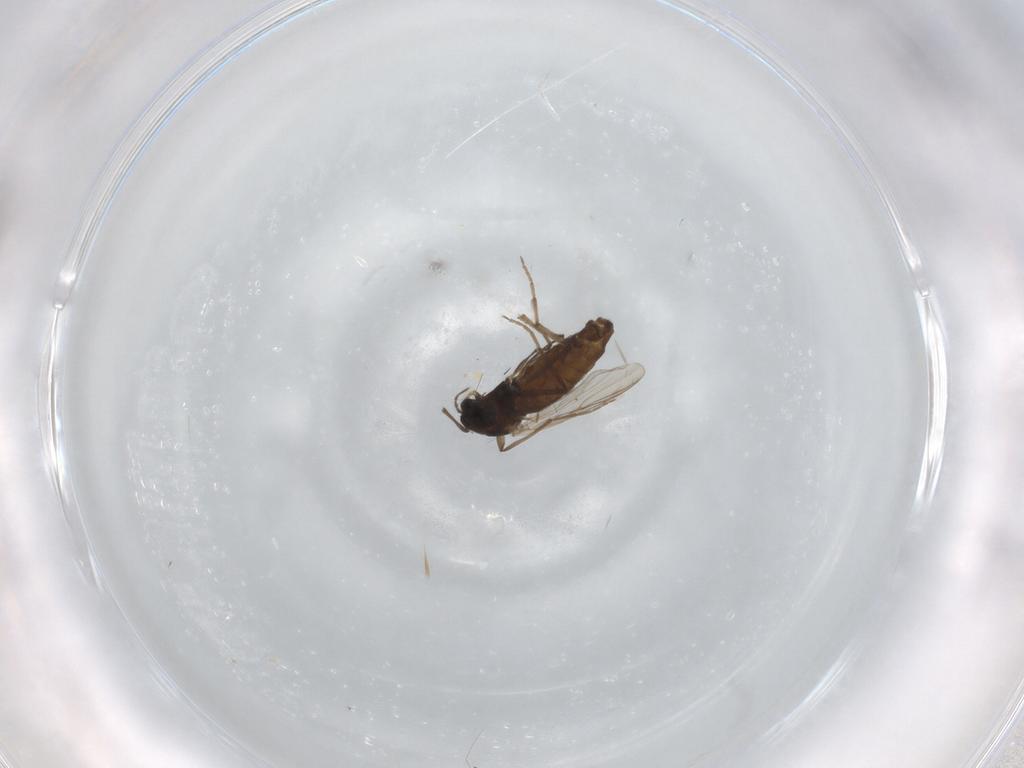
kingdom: Animalia
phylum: Arthropoda
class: Insecta
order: Diptera
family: Chironomidae
